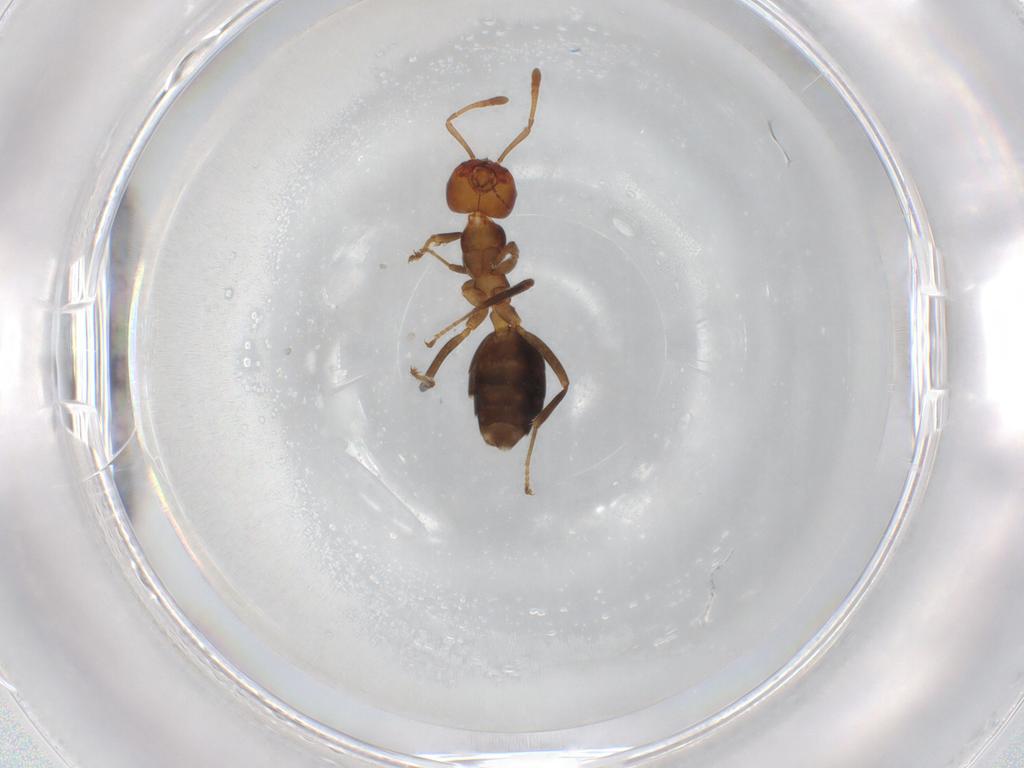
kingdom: Animalia
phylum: Arthropoda
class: Insecta
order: Hymenoptera
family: Formicidae
